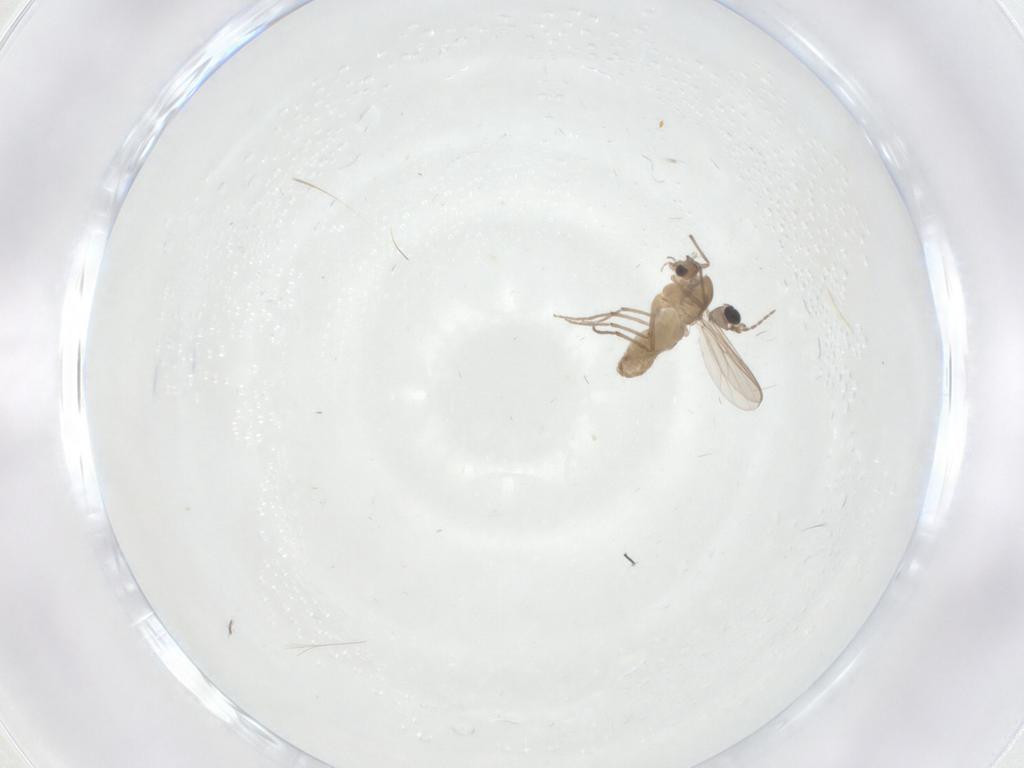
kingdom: Animalia
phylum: Arthropoda
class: Insecta
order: Diptera
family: Chironomidae
